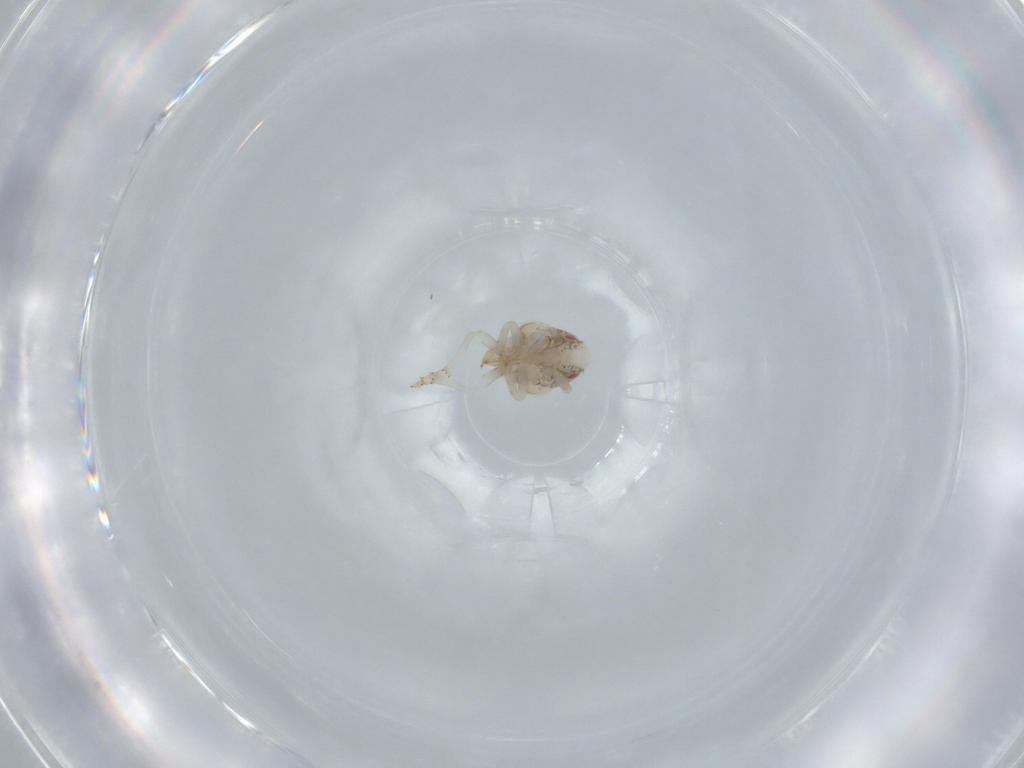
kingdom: Animalia
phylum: Arthropoda
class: Insecta
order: Hemiptera
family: Acanaloniidae
